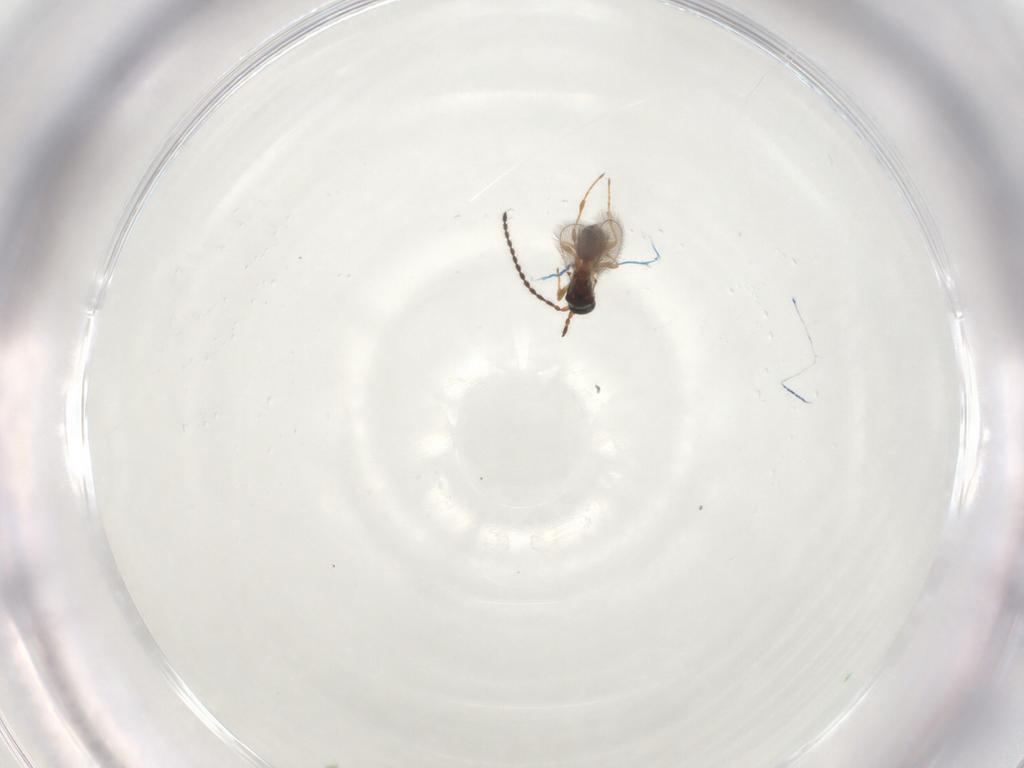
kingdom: Animalia
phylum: Arthropoda
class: Insecta
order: Hymenoptera
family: Diapriidae
